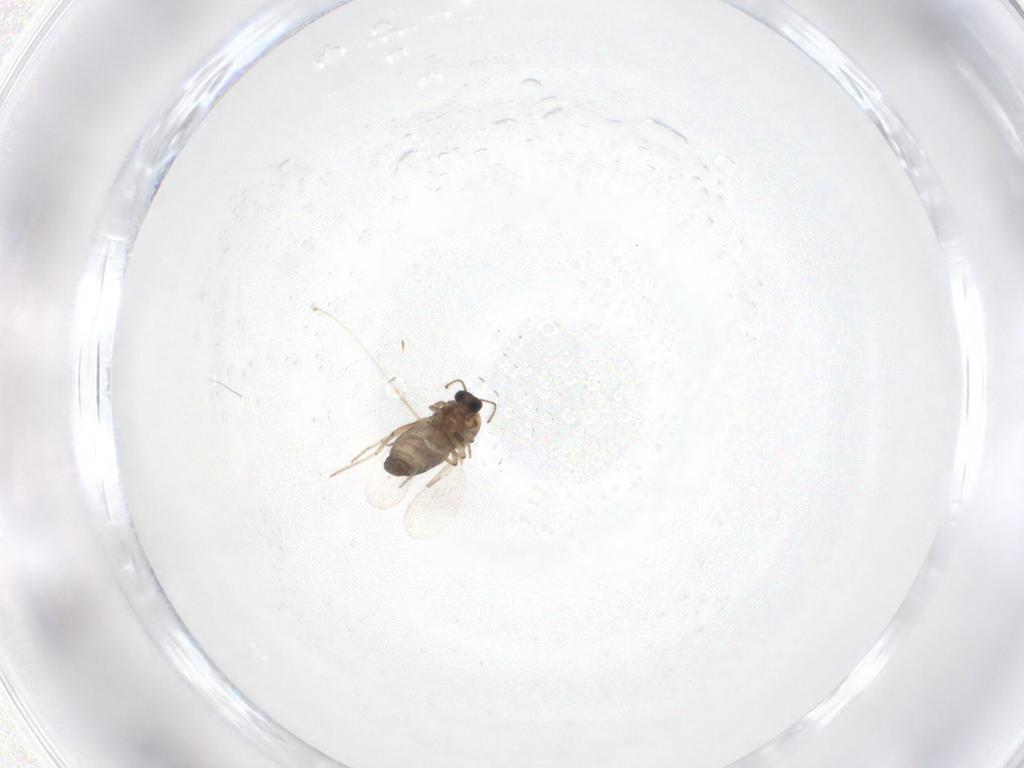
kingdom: Animalia
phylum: Arthropoda
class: Insecta
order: Diptera
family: Ceratopogonidae
